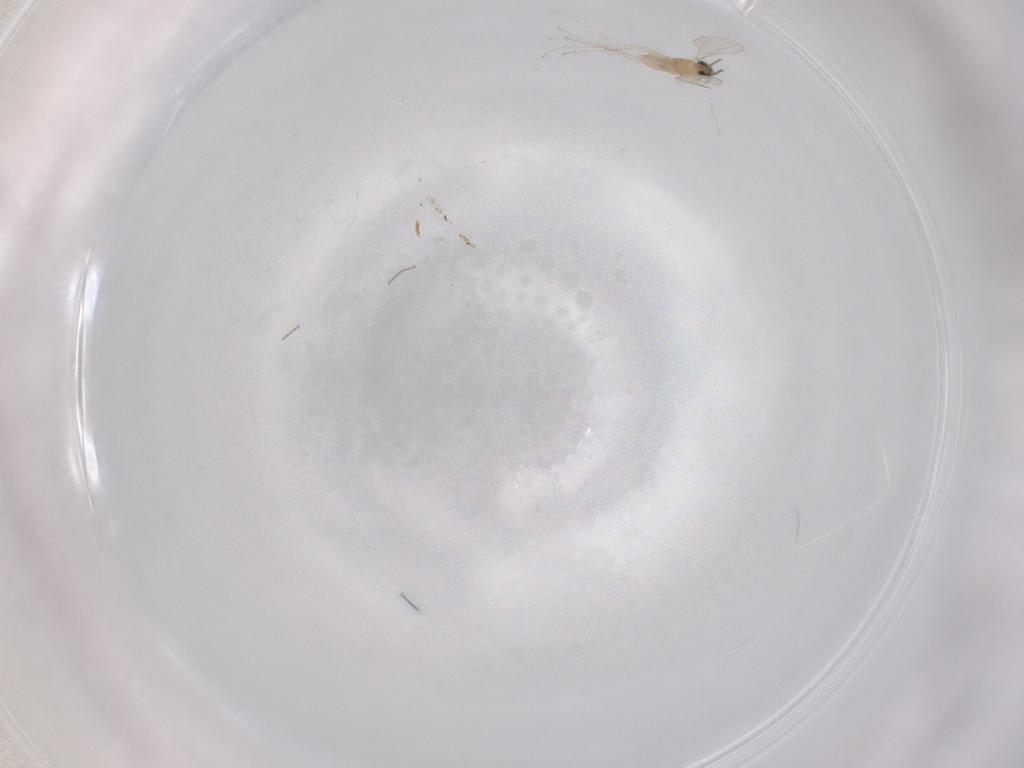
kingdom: Animalia
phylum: Arthropoda
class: Insecta
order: Diptera
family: Cecidomyiidae
